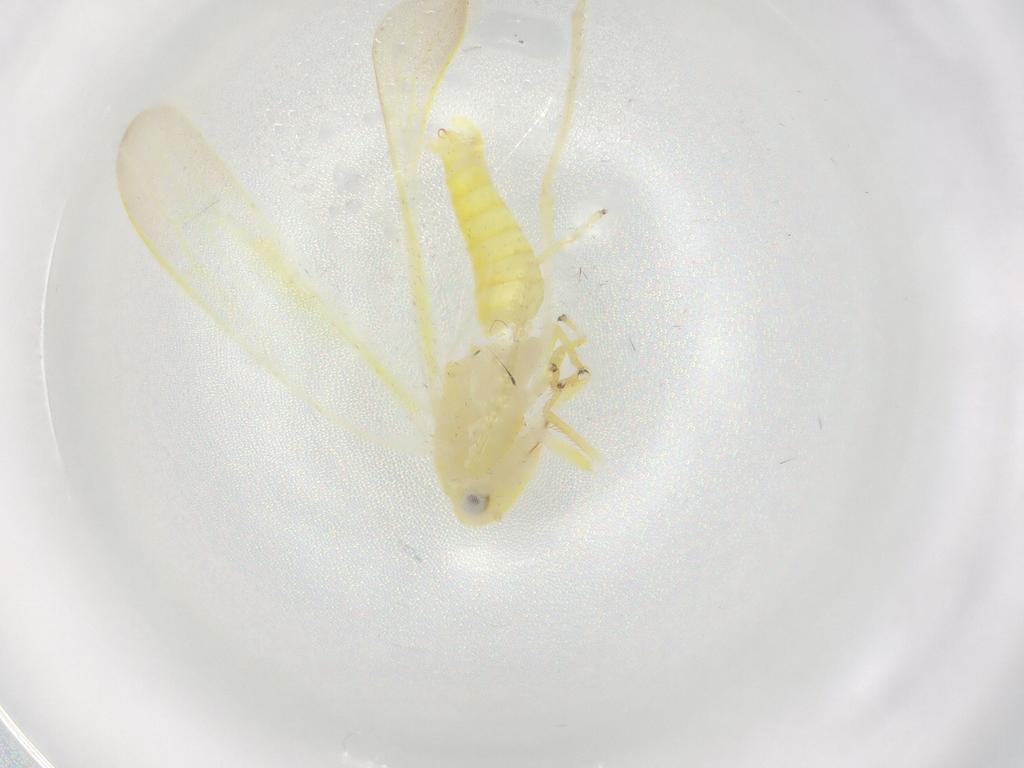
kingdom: Animalia
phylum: Arthropoda
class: Insecta
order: Hemiptera
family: Cicadellidae
